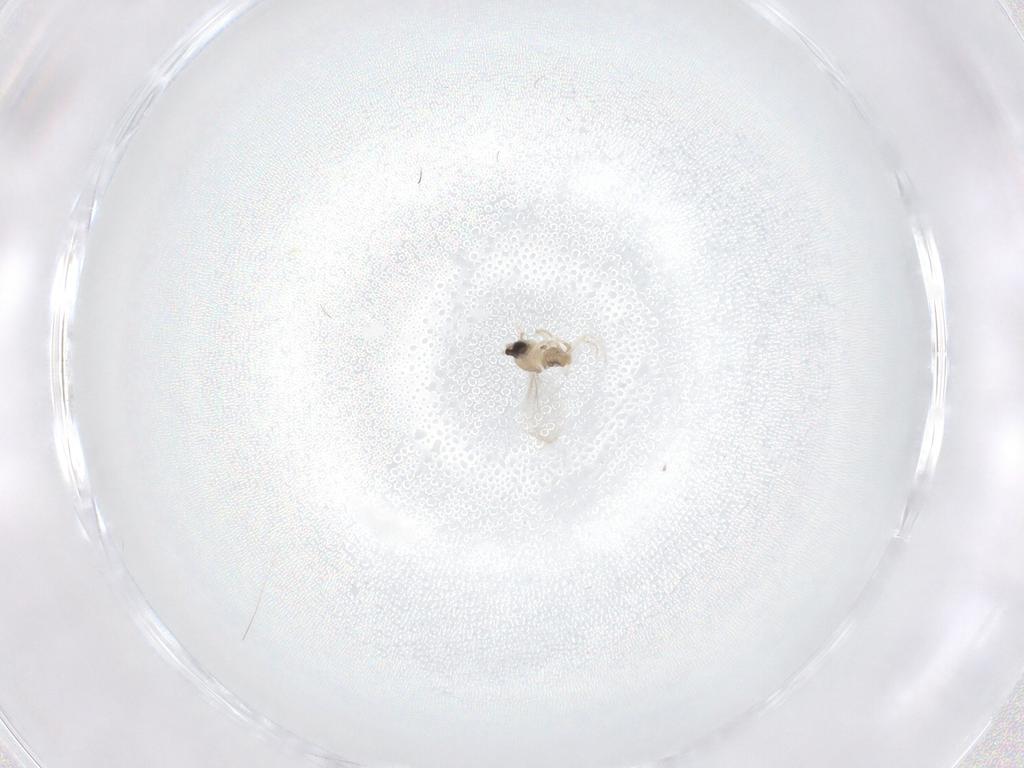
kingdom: Animalia
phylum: Arthropoda
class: Insecta
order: Diptera
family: Cecidomyiidae
